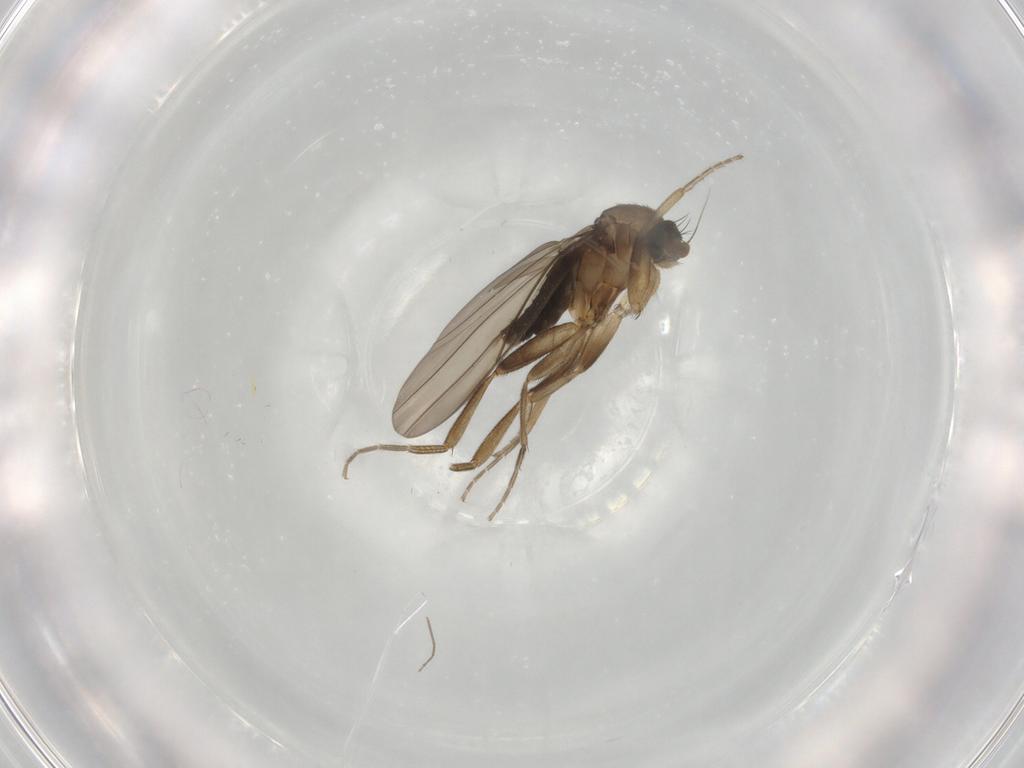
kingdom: Animalia
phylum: Arthropoda
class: Insecta
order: Diptera
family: Phoridae
